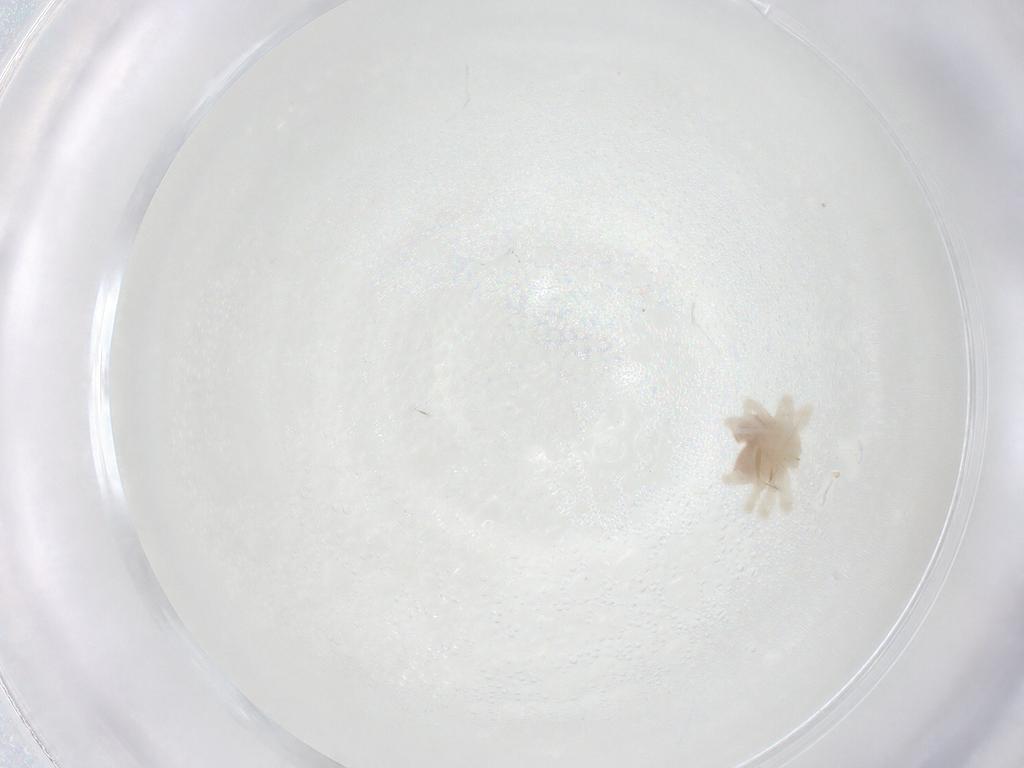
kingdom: Animalia
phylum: Arthropoda
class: Arachnida
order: Trombidiformes
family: Anystidae
